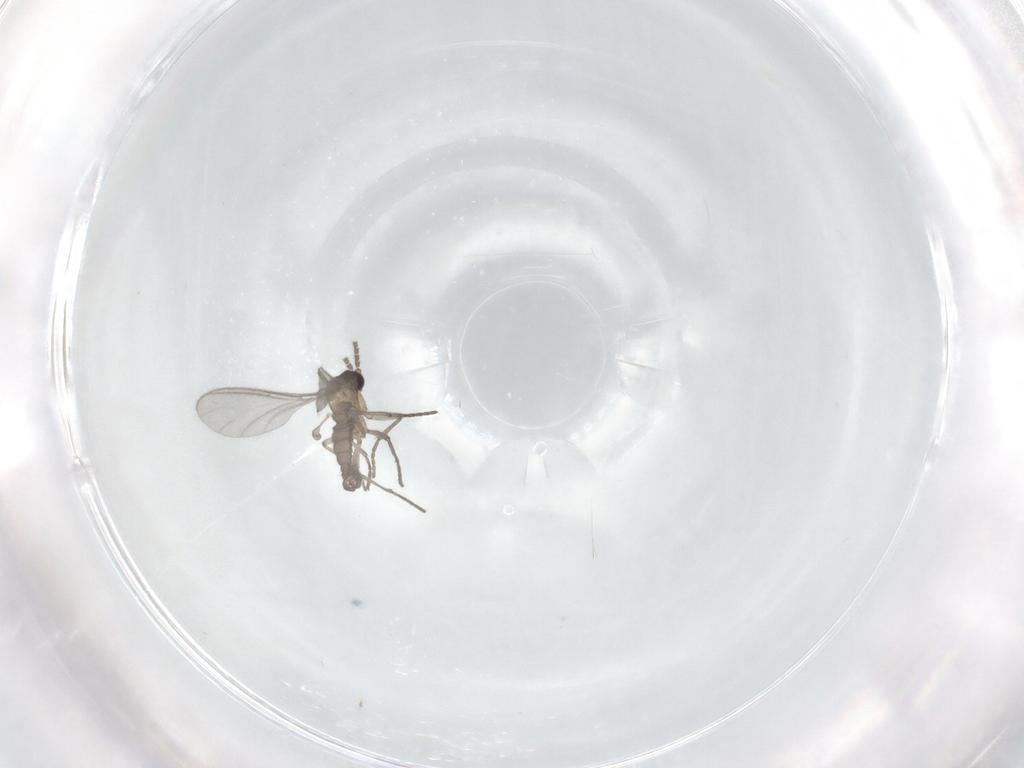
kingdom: Animalia
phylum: Arthropoda
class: Insecta
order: Diptera
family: Sciaridae
